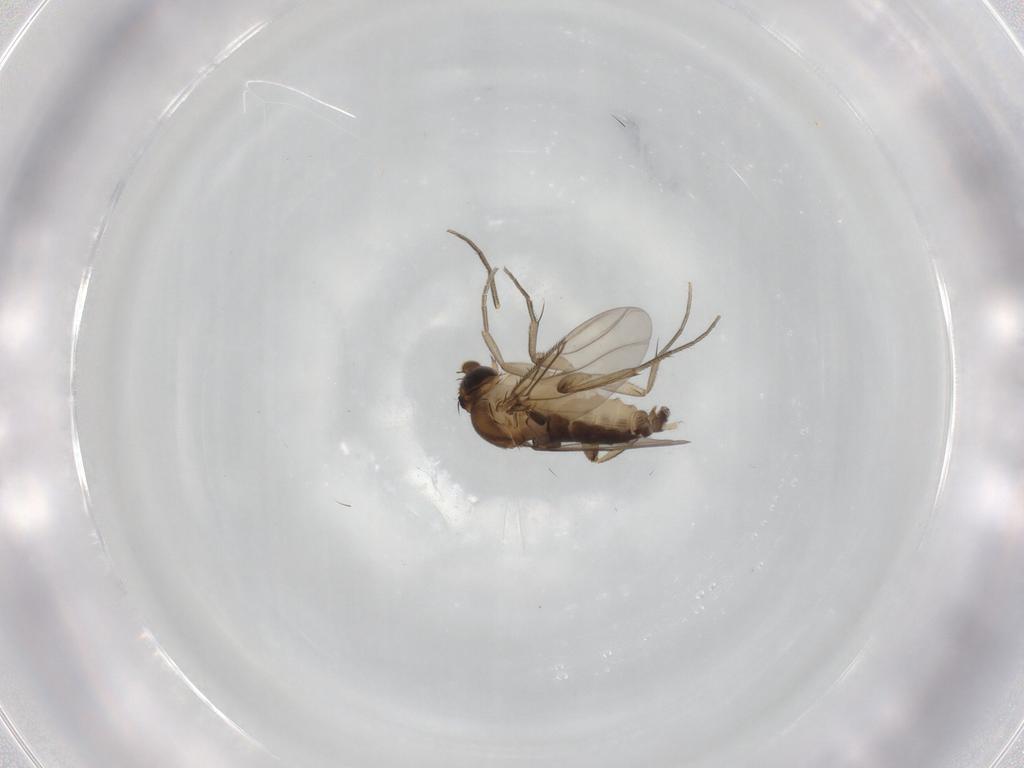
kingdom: Animalia
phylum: Arthropoda
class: Insecta
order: Diptera
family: Phoridae
